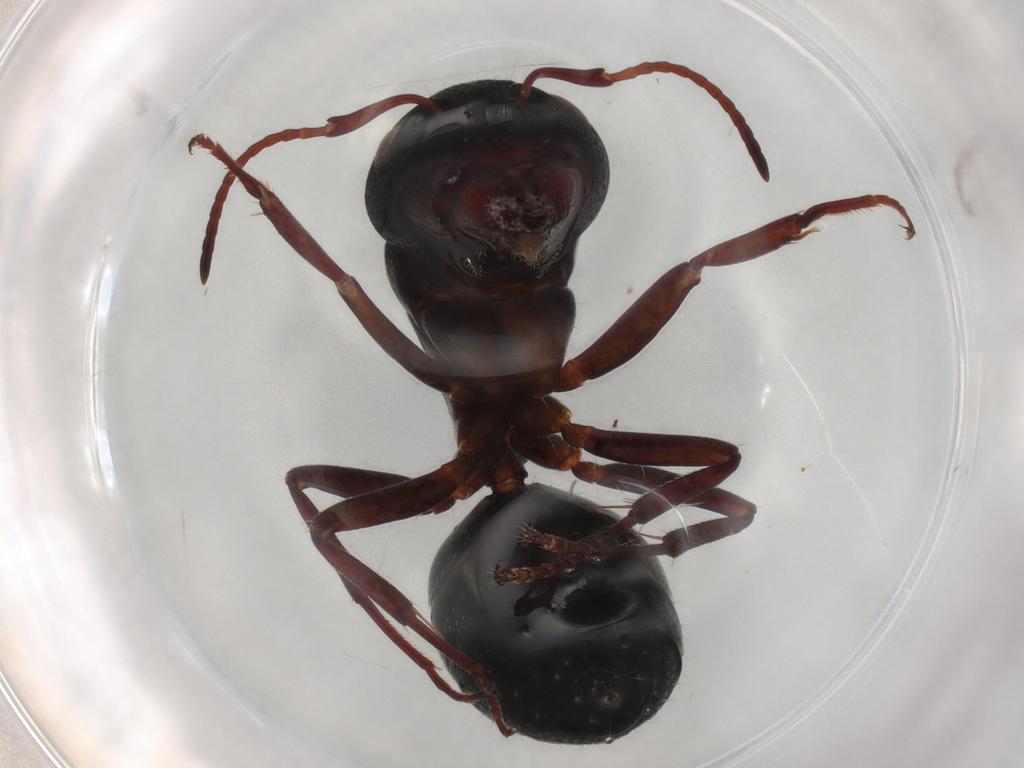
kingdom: Animalia
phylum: Arthropoda
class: Insecta
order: Hymenoptera
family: Formicidae
